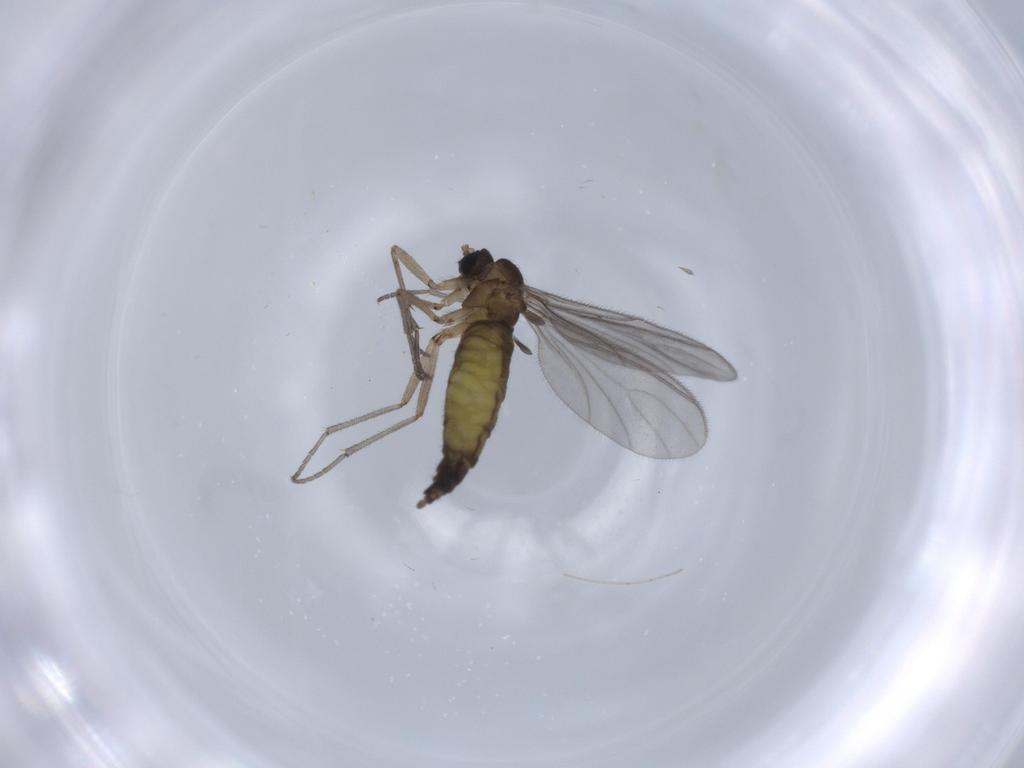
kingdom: Animalia
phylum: Arthropoda
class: Insecta
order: Diptera
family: Sciaridae
